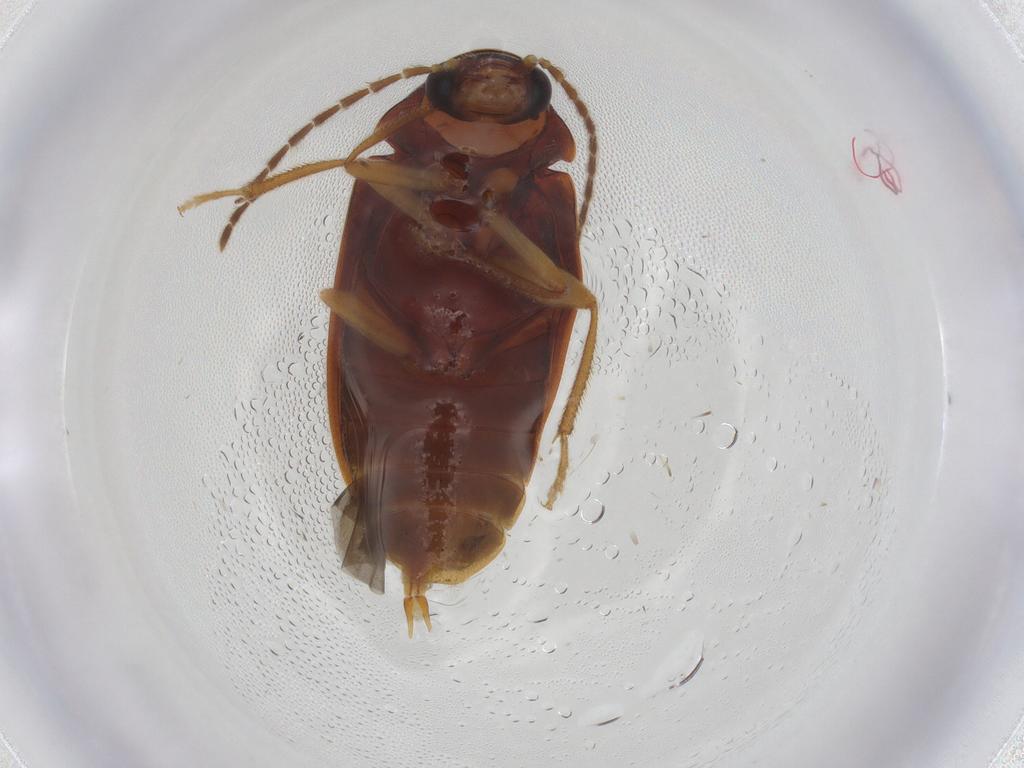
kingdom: Animalia
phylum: Arthropoda
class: Insecta
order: Coleoptera
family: Ptilodactylidae
